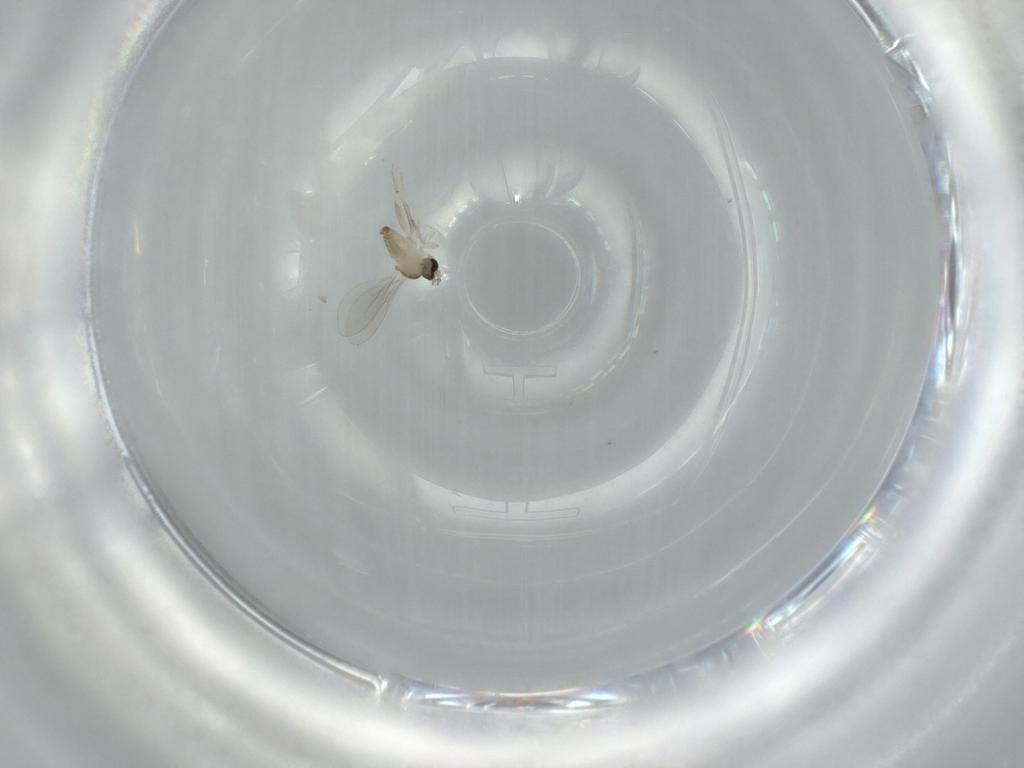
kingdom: Animalia
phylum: Arthropoda
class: Insecta
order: Diptera
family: Cecidomyiidae
